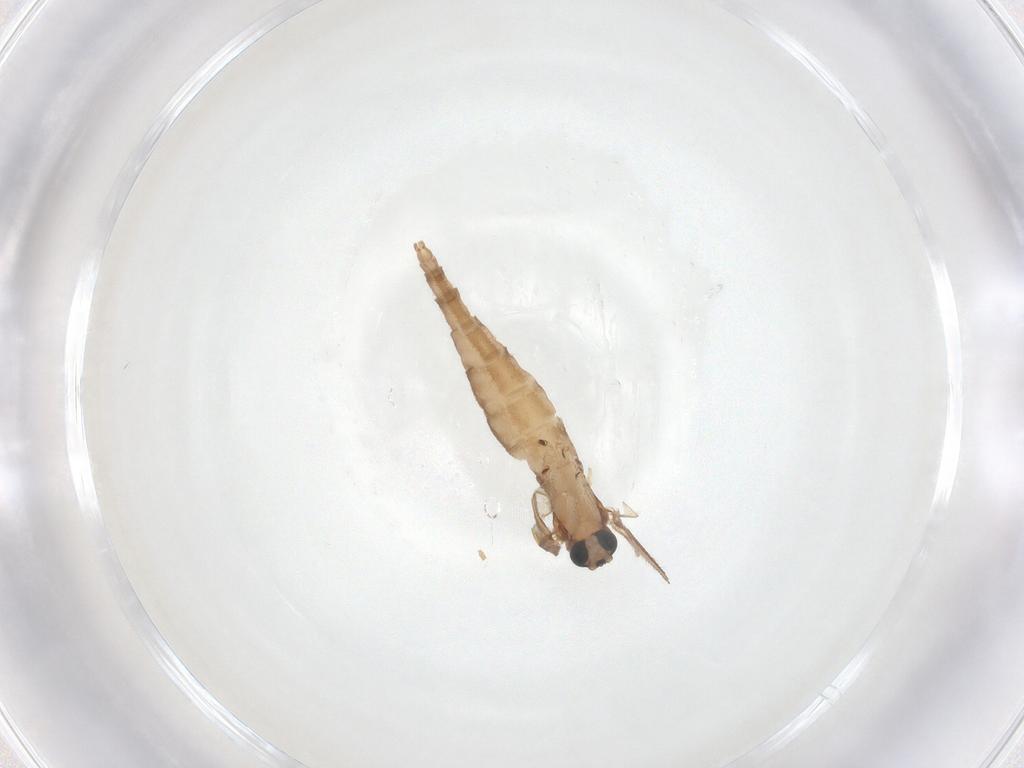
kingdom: Animalia
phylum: Arthropoda
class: Insecta
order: Diptera
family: Sciaridae
